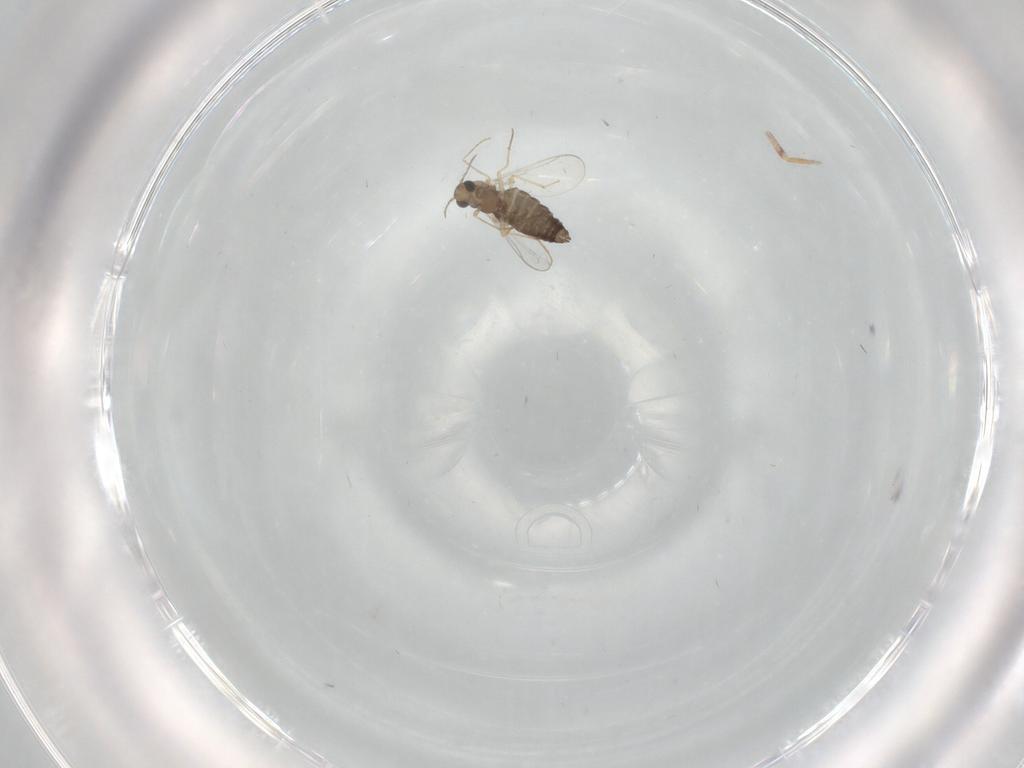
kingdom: Animalia
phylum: Arthropoda
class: Insecta
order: Diptera
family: Chironomidae
